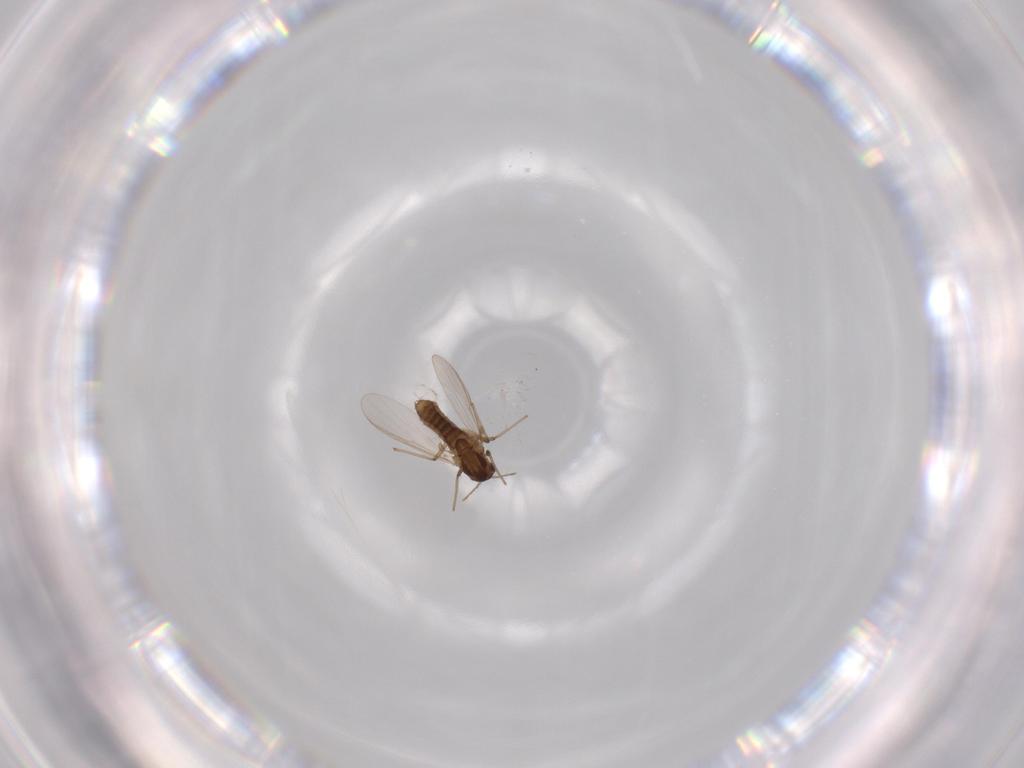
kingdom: Animalia
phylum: Arthropoda
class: Insecta
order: Diptera
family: Chironomidae
